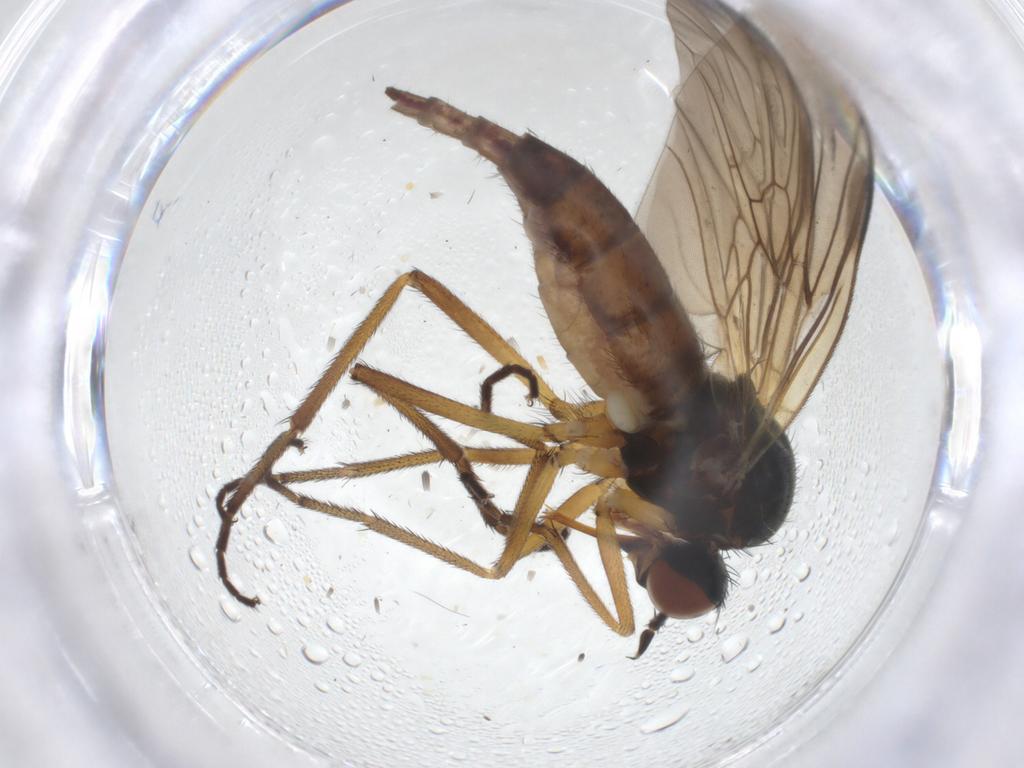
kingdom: Animalia
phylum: Arthropoda
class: Insecta
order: Diptera
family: Empididae
